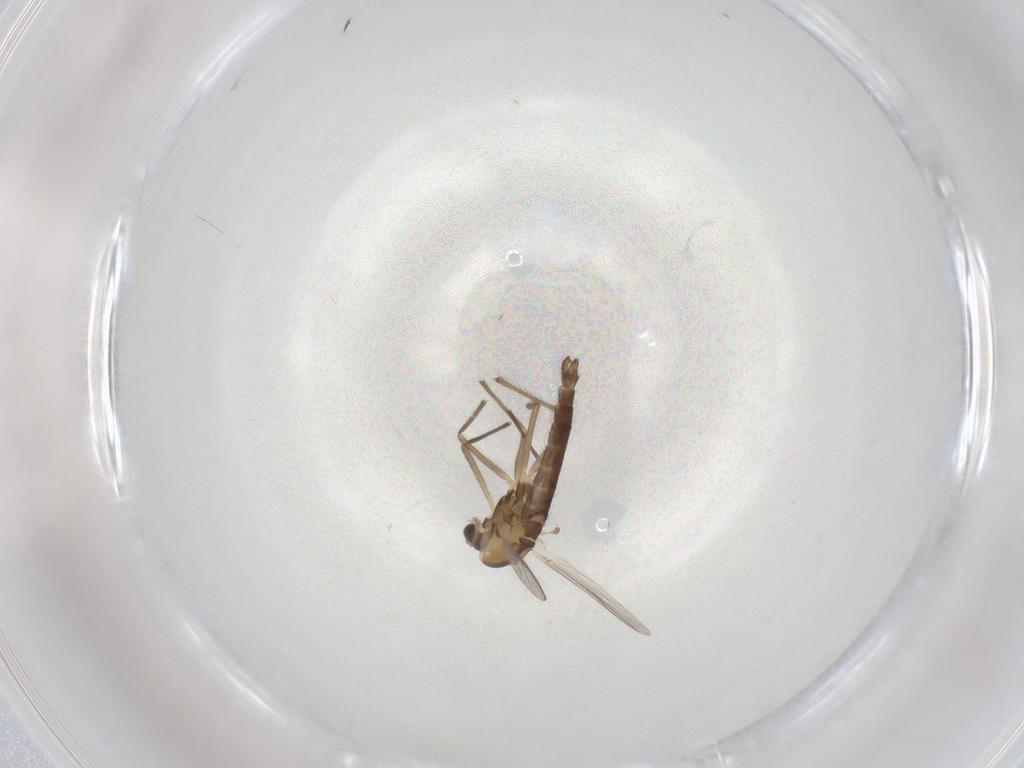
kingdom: Animalia
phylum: Arthropoda
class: Insecta
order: Diptera
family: Chironomidae
